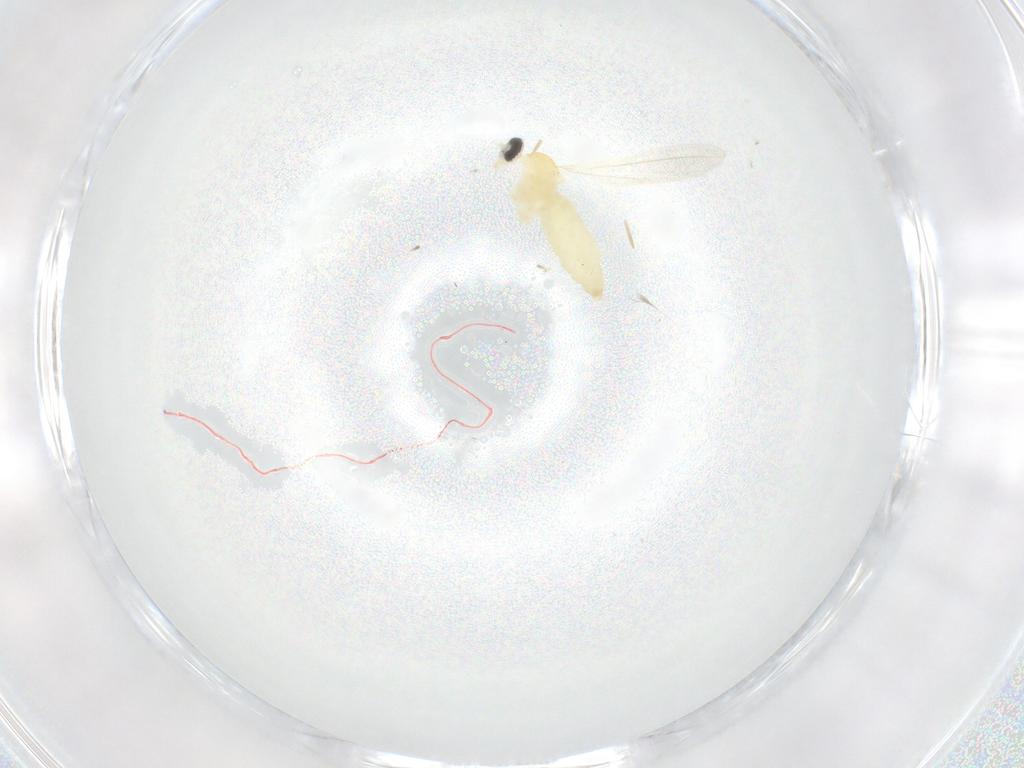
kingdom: Animalia
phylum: Arthropoda
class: Insecta
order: Diptera
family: Cecidomyiidae
